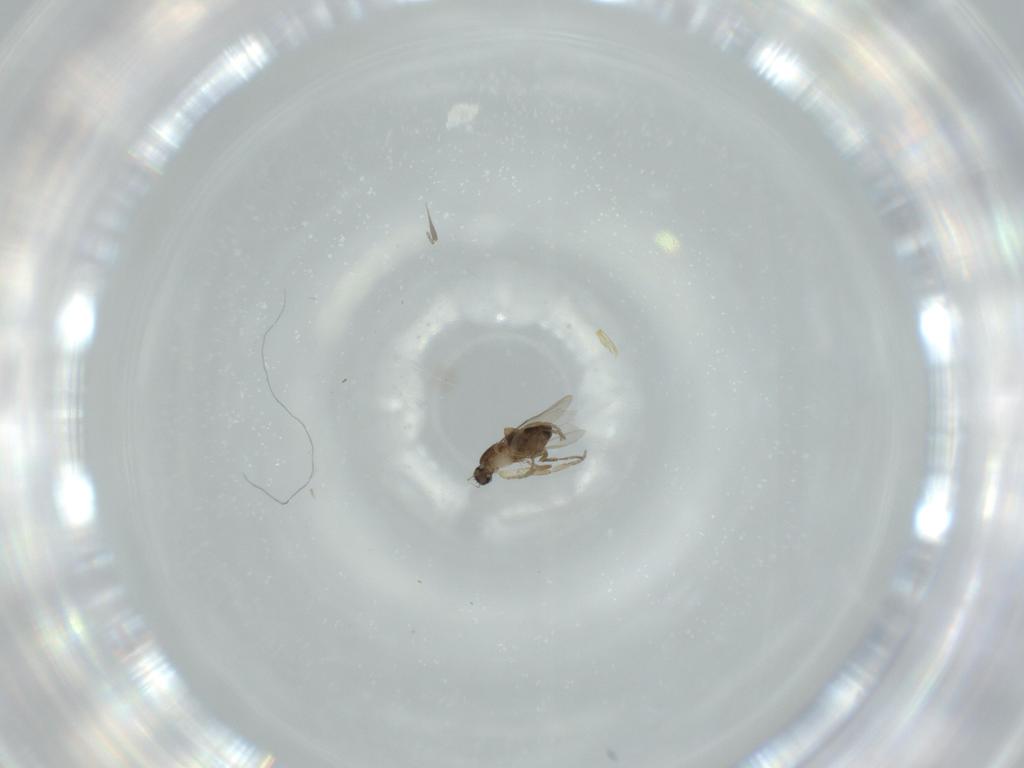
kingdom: Animalia
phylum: Arthropoda
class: Insecta
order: Diptera
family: Phoridae
